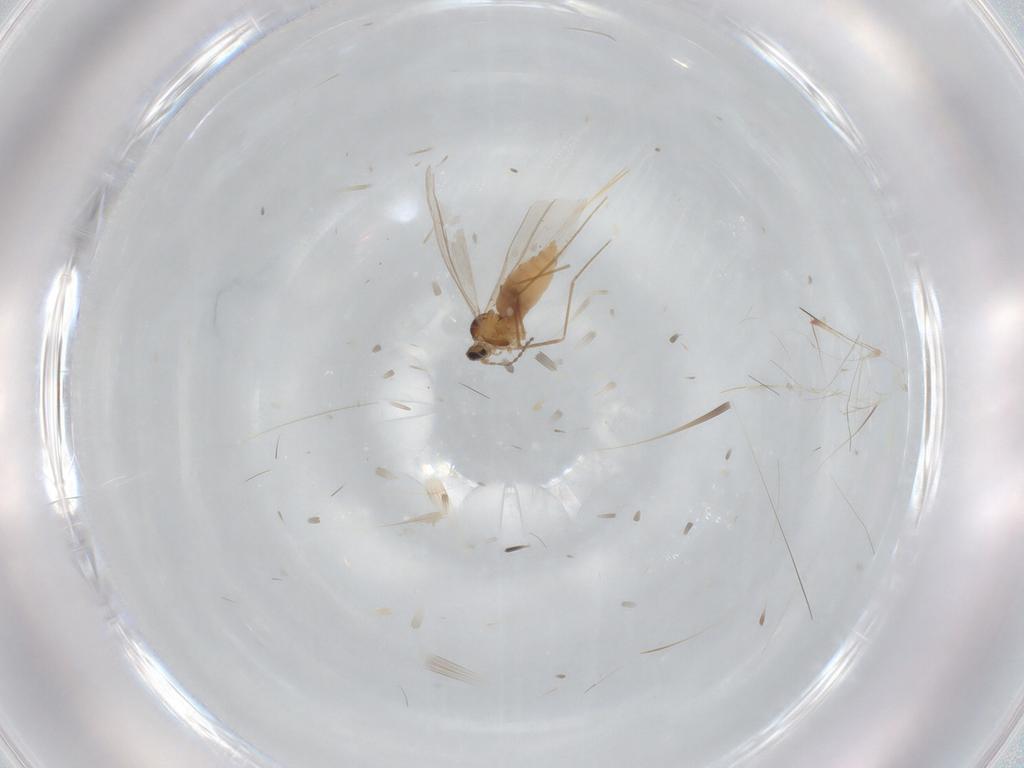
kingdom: Animalia
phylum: Arthropoda
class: Insecta
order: Diptera
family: Cecidomyiidae
